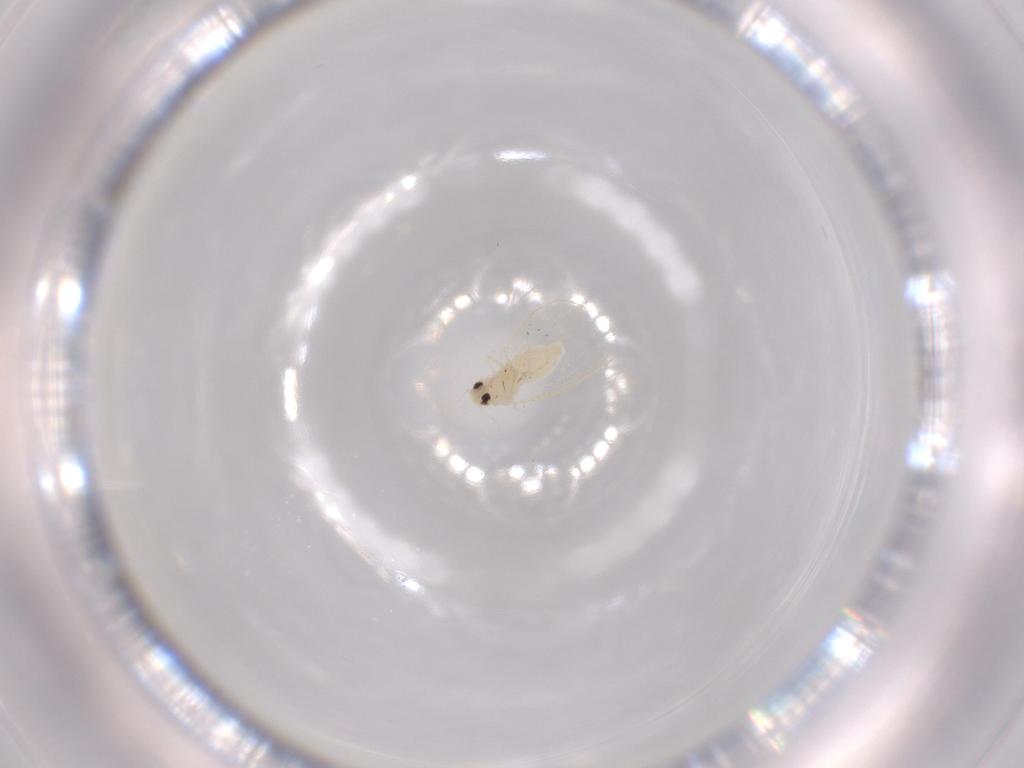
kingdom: Animalia
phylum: Arthropoda
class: Insecta
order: Hemiptera
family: Aleyrodidae
